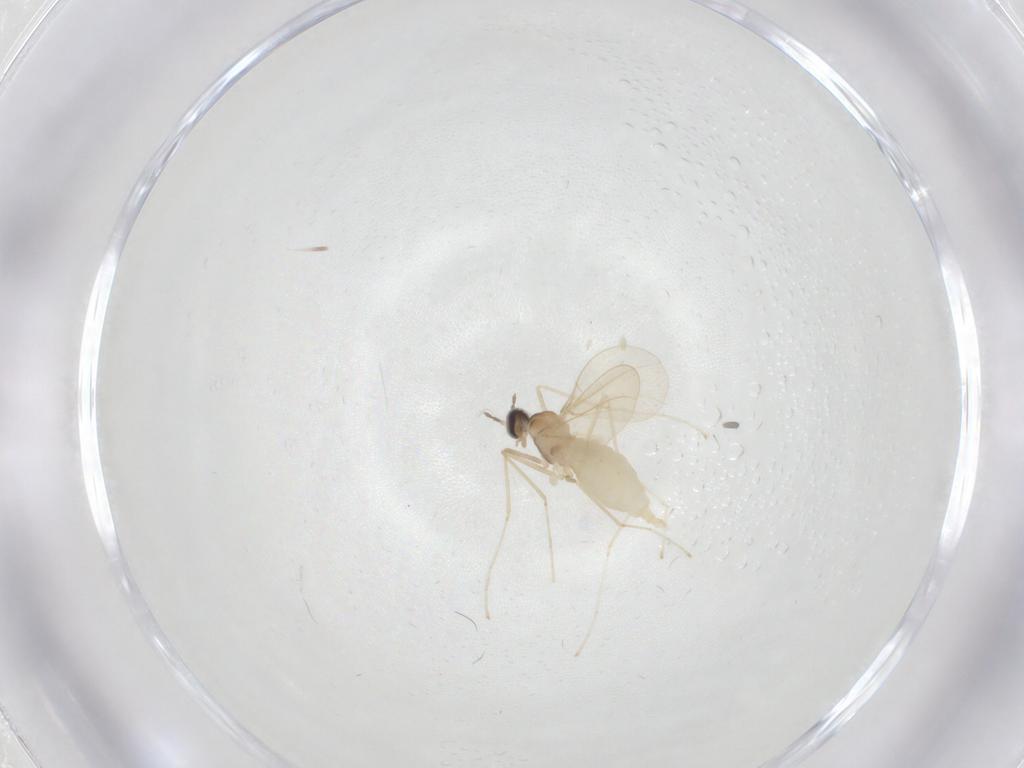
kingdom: Animalia
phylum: Arthropoda
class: Insecta
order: Diptera
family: Cecidomyiidae
